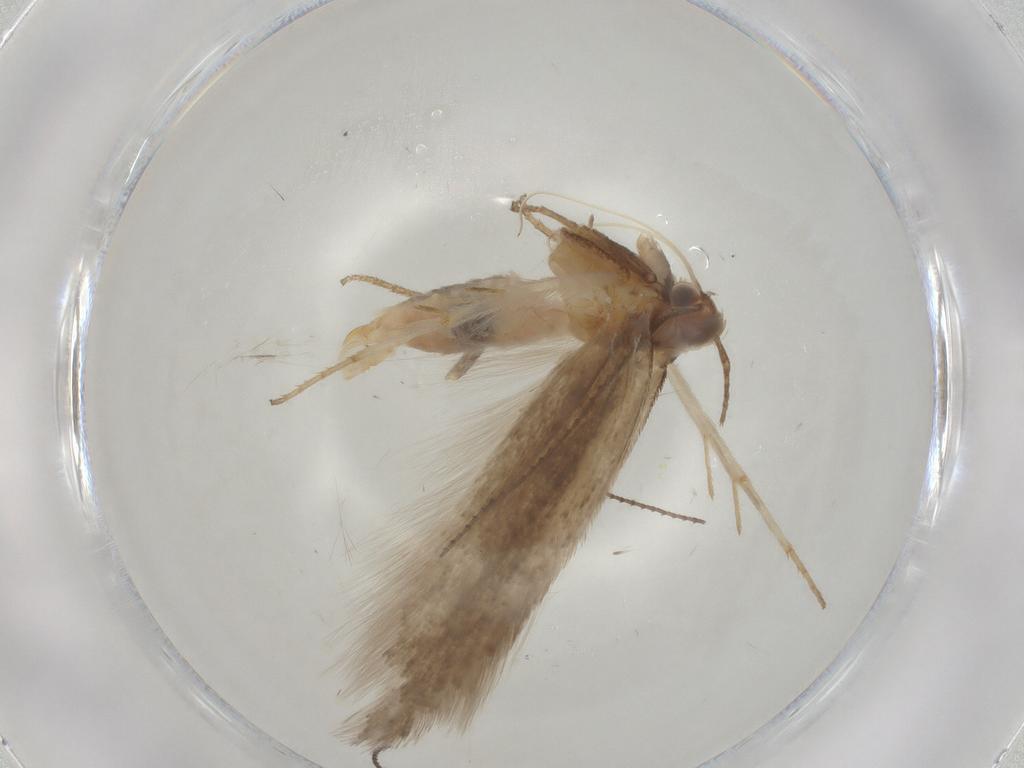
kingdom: Animalia
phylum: Arthropoda
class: Insecta
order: Lepidoptera
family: Gelechiidae
